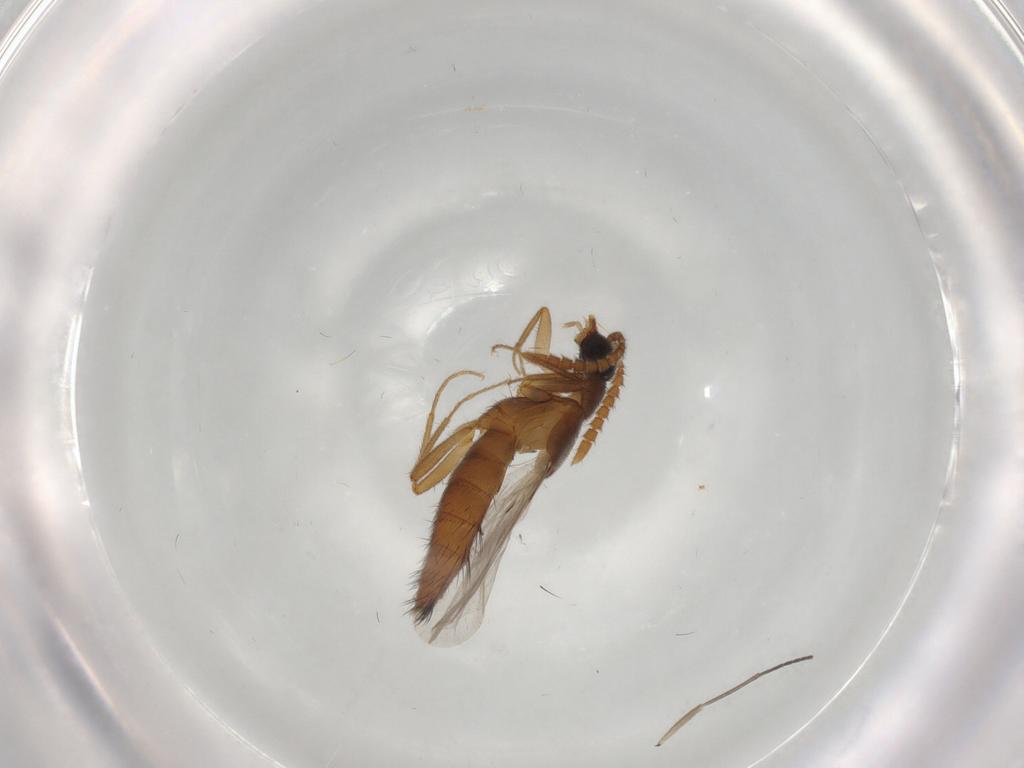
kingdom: Animalia
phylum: Arthropoda
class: Insecta
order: Coleoptera
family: Staphylinidae
